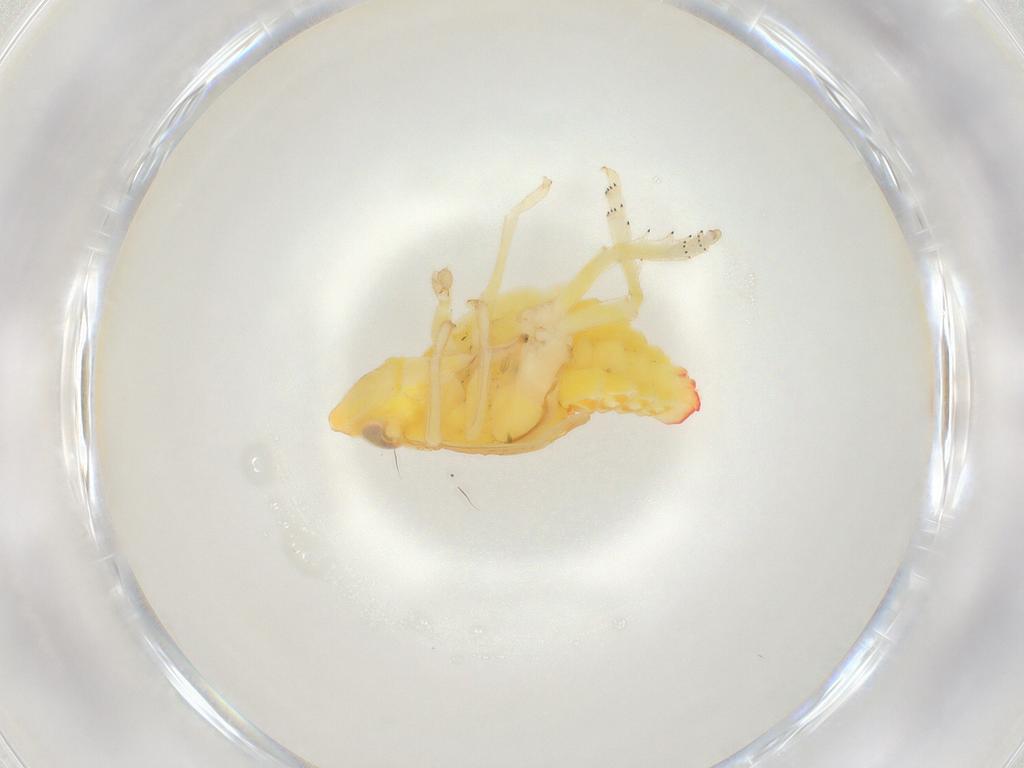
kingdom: Animalia
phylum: Arthropoda
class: Insecta
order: Diptera
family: Chironomidae
